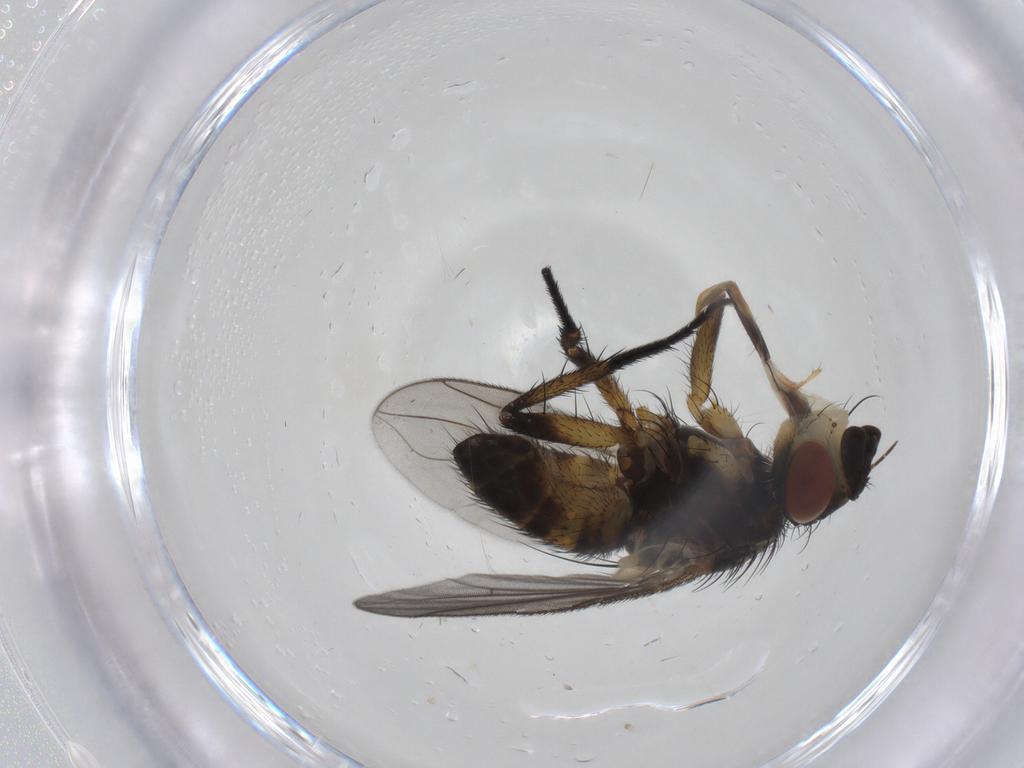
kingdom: Animalia
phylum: Arthropoda
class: Insecta
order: Diptera
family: Tachinidae
